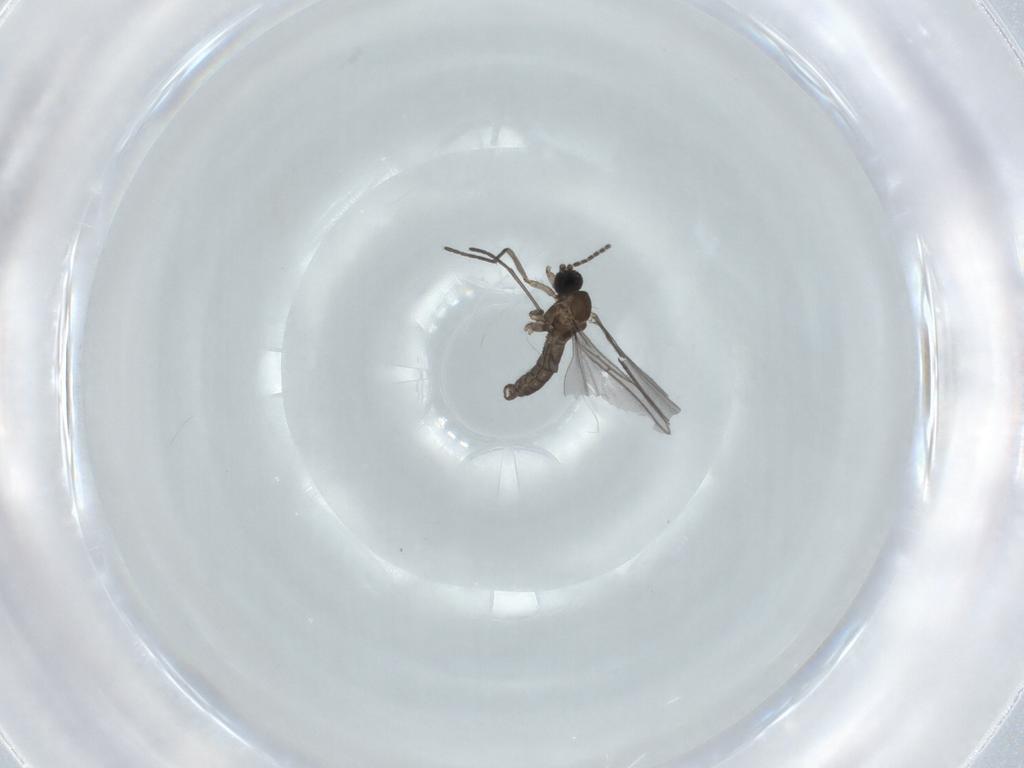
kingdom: Animalia
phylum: Arthropoda
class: Insecta
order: Diptera
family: Sciaridae
